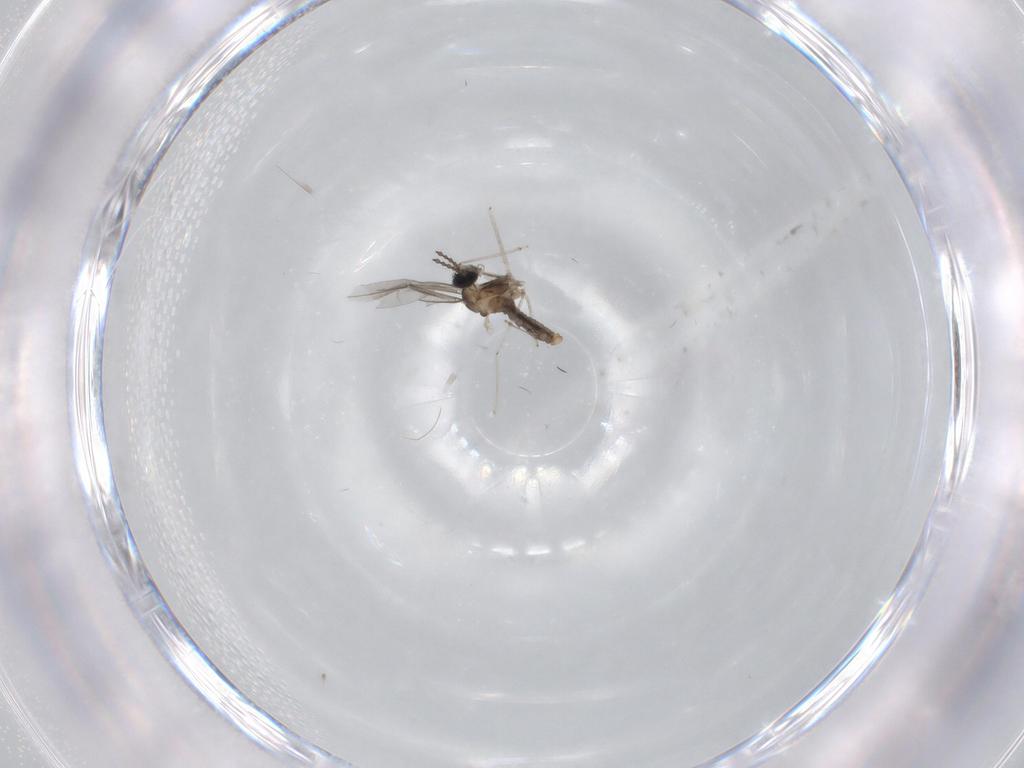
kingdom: Animalia
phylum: Arthropoda
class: Insecta
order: Diptera
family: Cecidomyiidae
